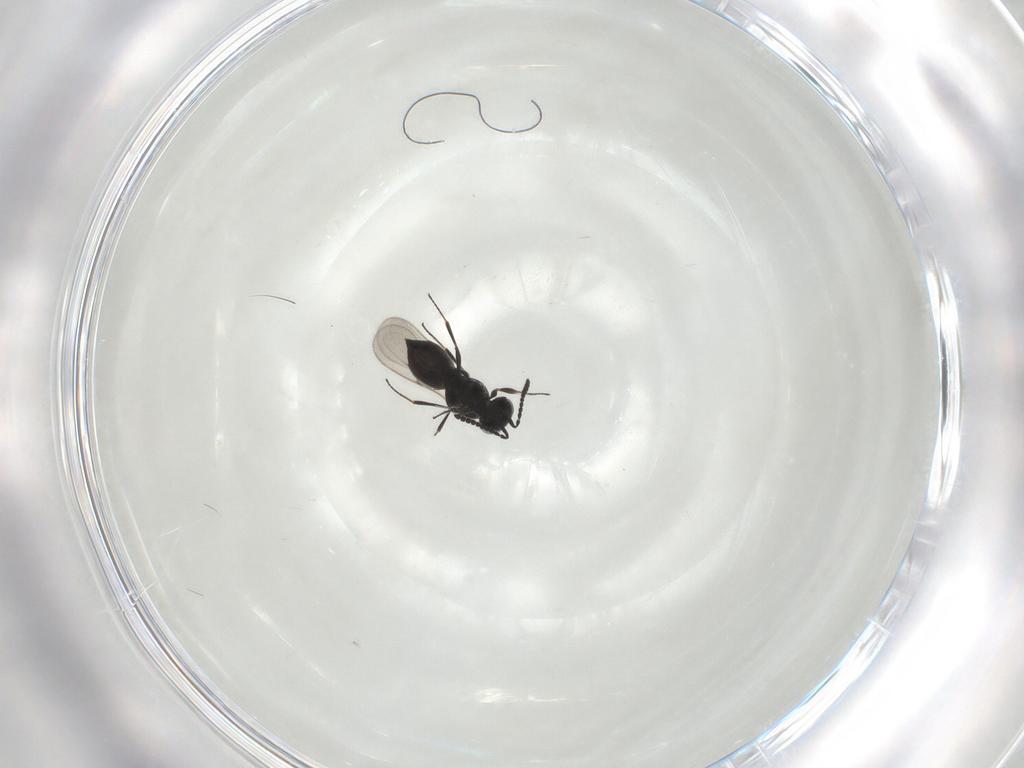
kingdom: Animalia
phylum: Arthropoda
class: Insecta
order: Hymenoptera
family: Scelionidae
